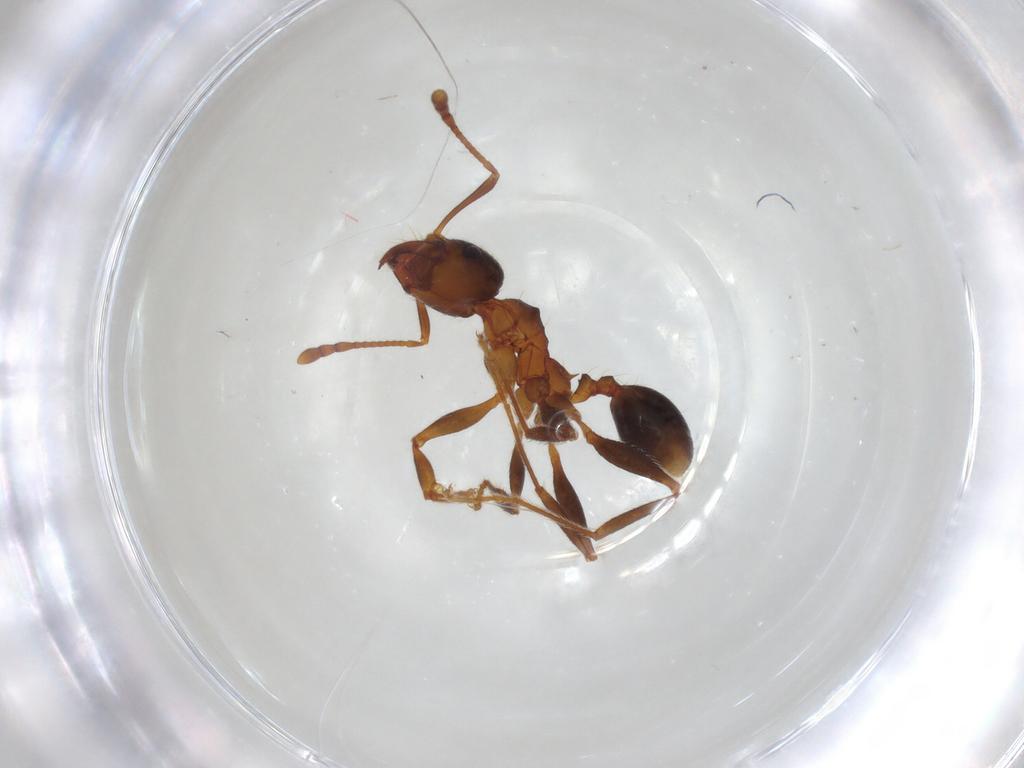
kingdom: Animalia
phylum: Arthropoda
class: Insecta
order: Hymenoptera
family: Formicidae
